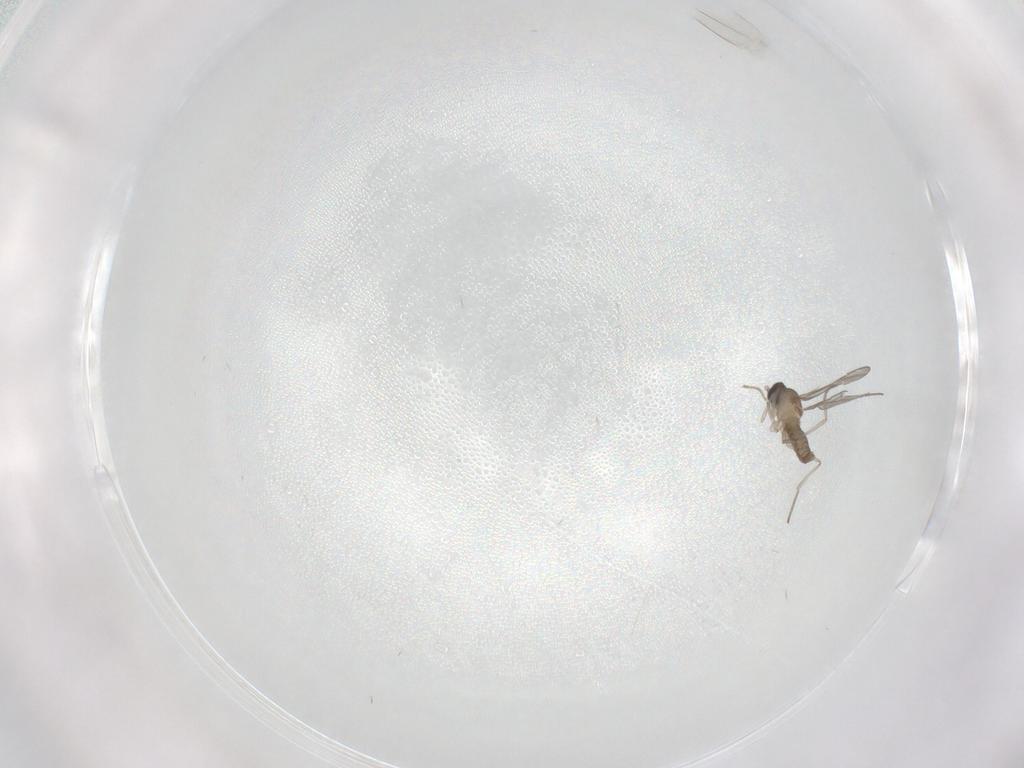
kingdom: Animalia
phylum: Arthropoda
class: Insecta
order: Diptera
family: Cecidomyiidae
